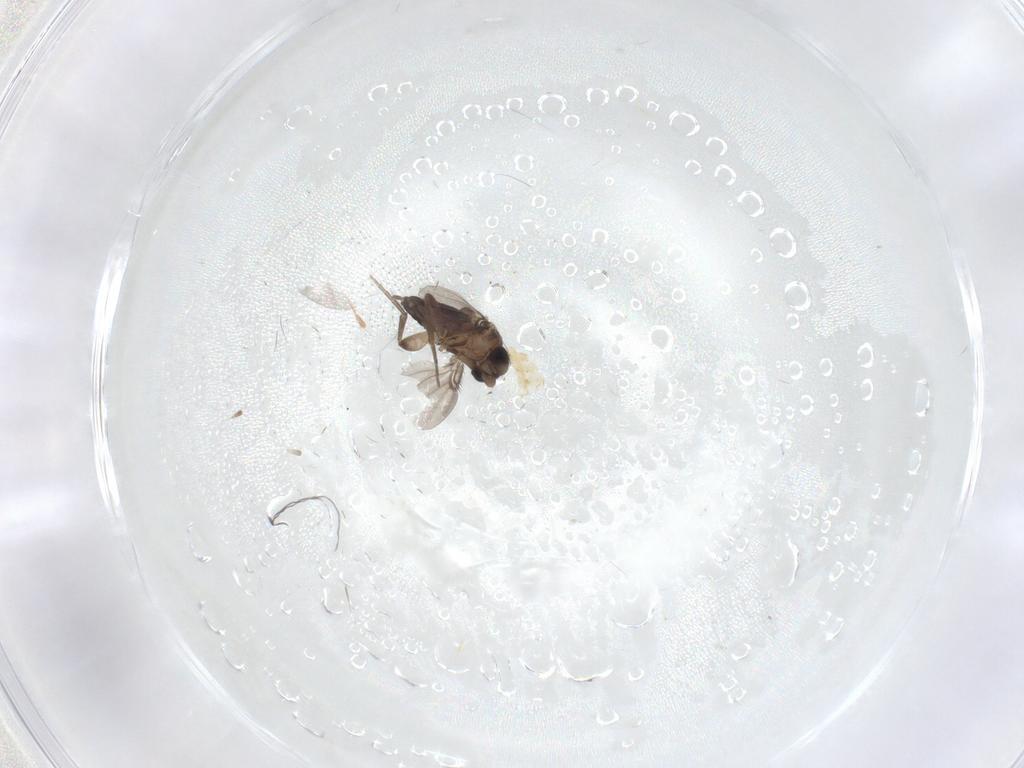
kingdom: Animalia
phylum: Arthropoda
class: Insecta
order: Diptera
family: Phoridae
